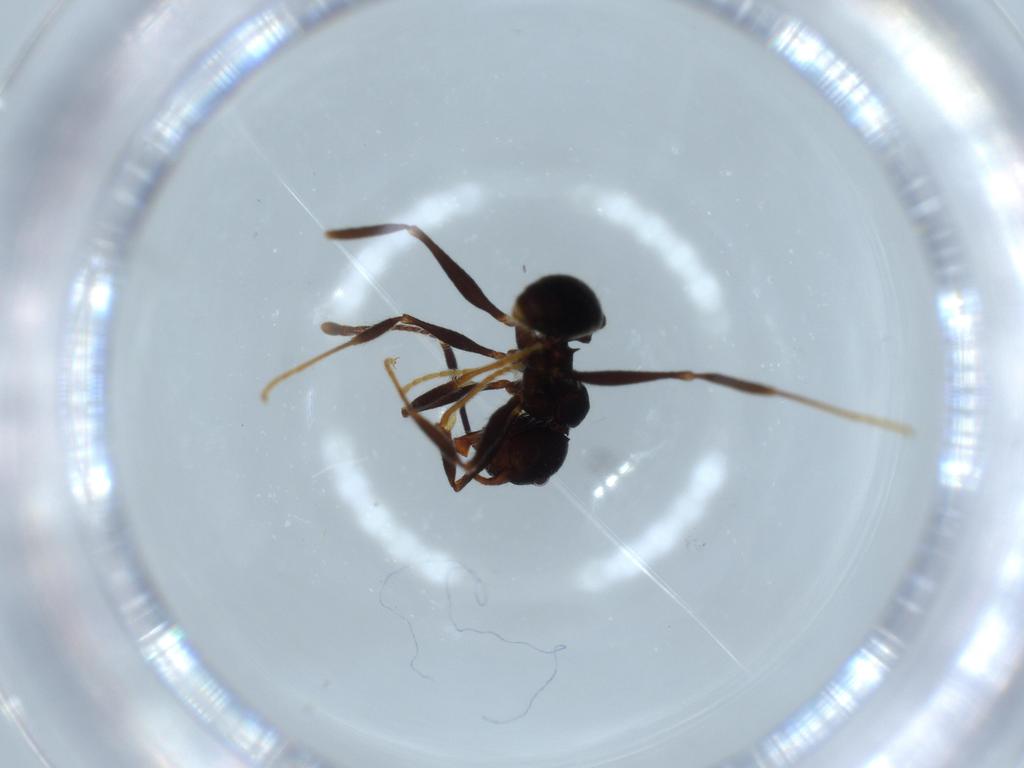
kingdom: Animalia
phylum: Arthropoda
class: Insecta
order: Hymenoptera
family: Formicidae
